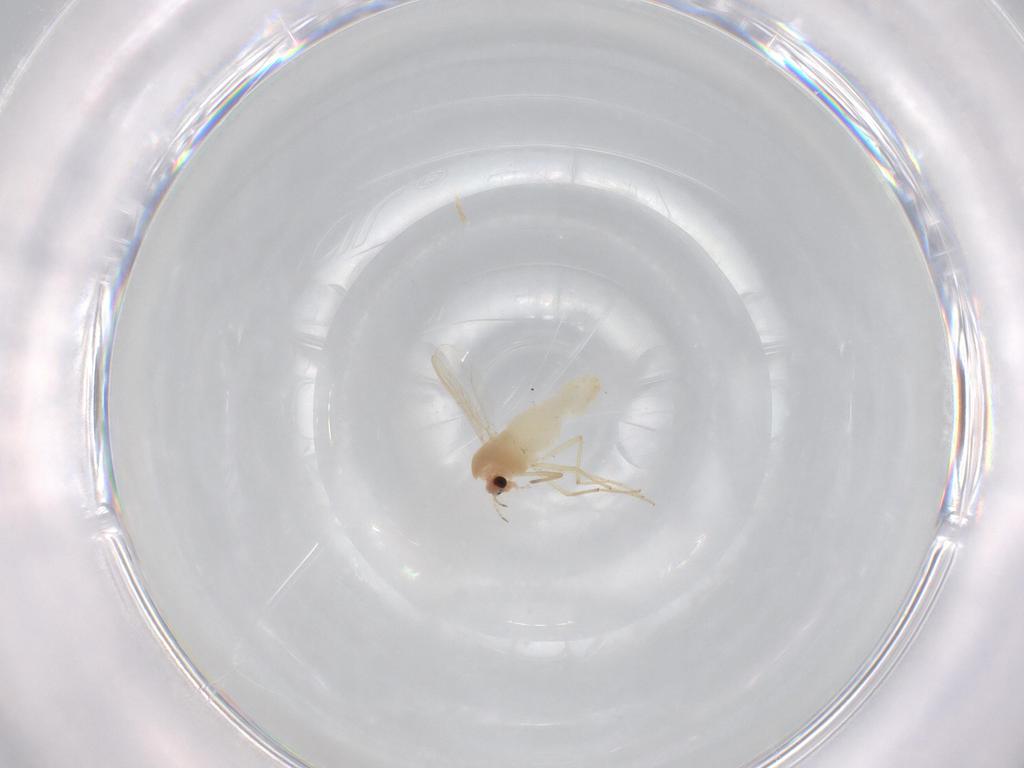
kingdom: Animalia
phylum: Arthropoda
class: Insecta
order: Diptera
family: Chironomidae
